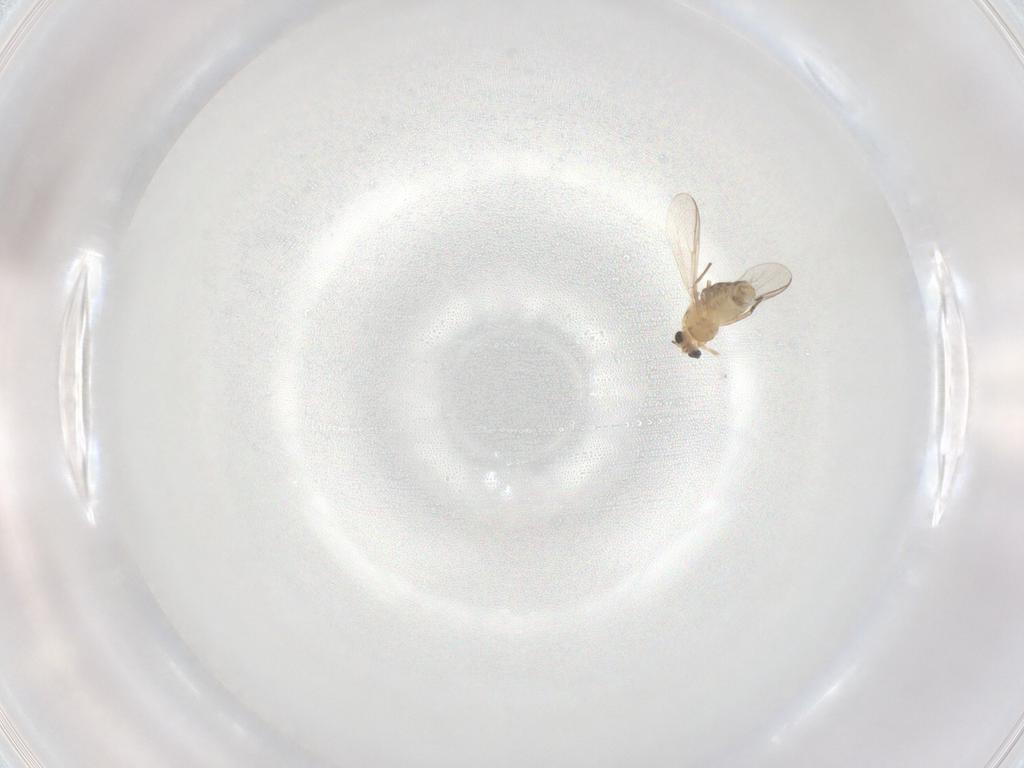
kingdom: Animalia
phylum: Arthropoda
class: Insecta
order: Diptera
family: Chironomidae
